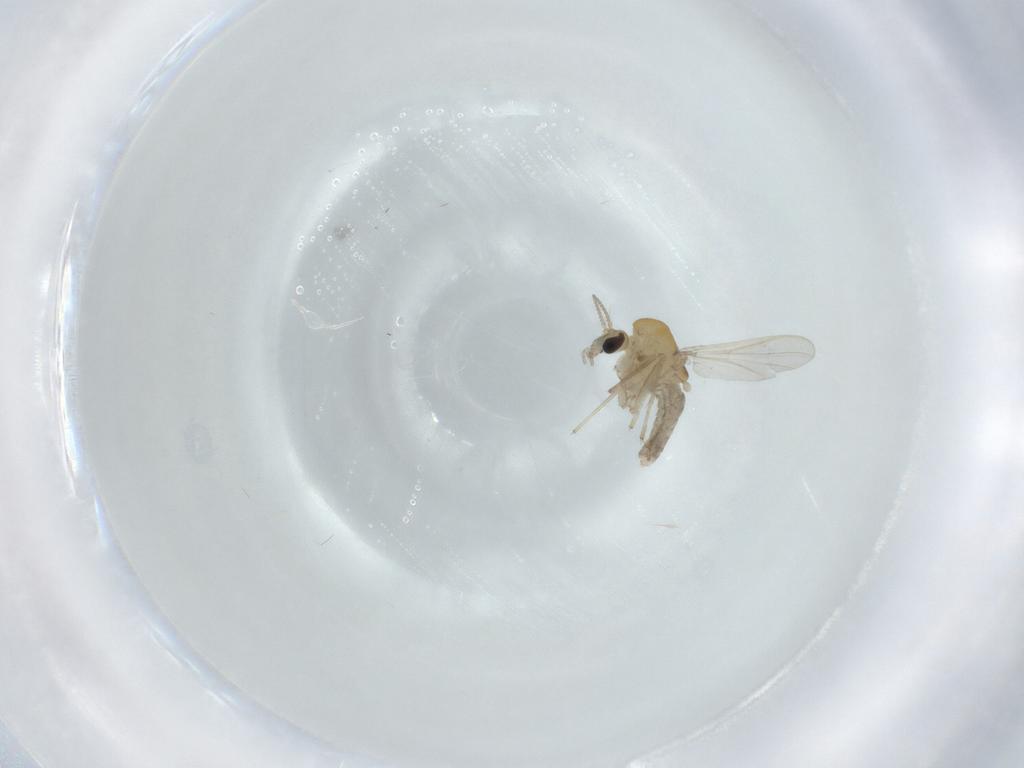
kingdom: Animalia
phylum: Arthropoda
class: Insecta
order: Diptera
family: Chironomidae
